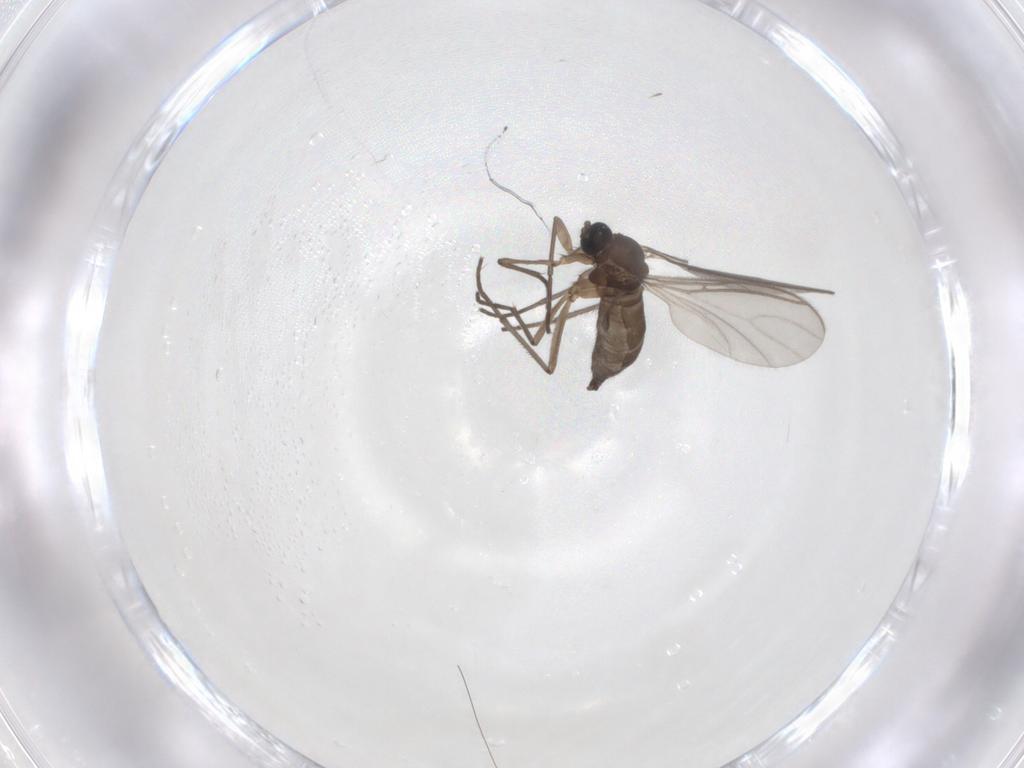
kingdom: Animalia
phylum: Arthropoda
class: Insecta
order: Diptera
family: Sciaridae
